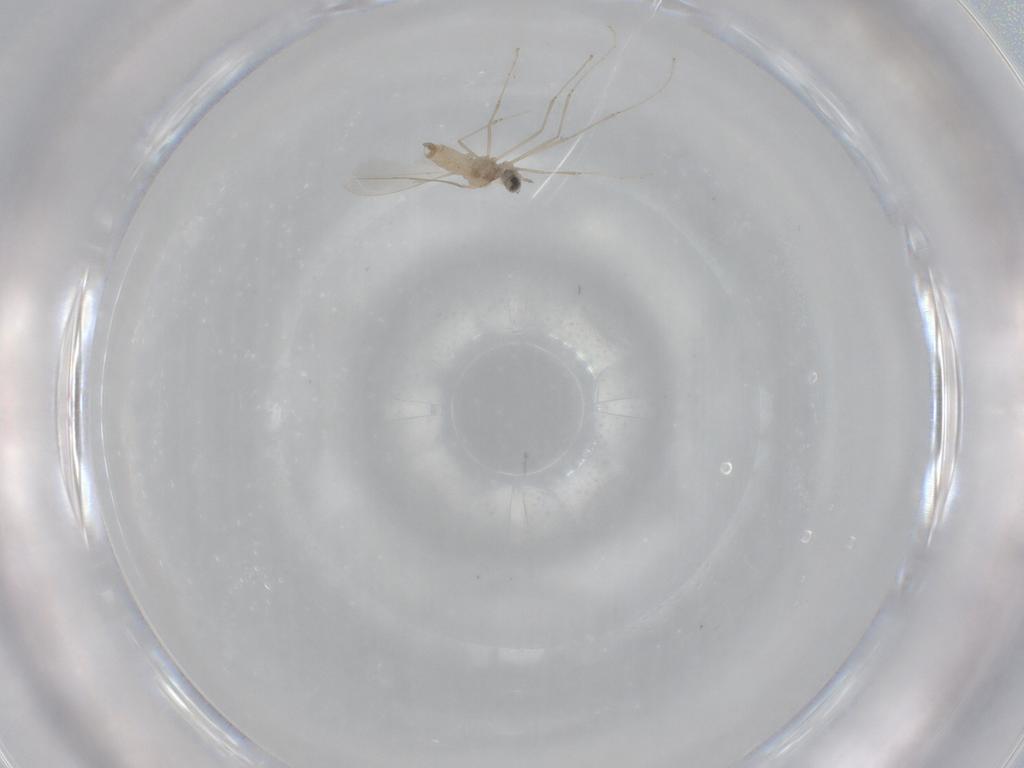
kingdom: Animalia
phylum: Arthropoda
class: Insecta
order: Diptera
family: Cecidomyiidae
